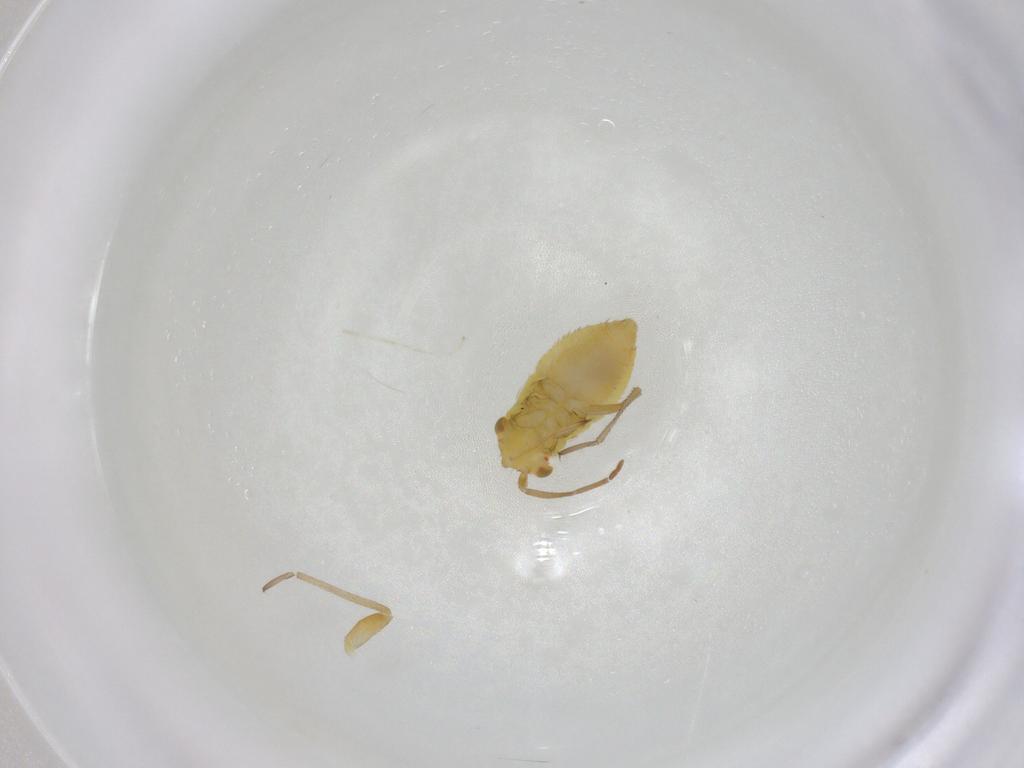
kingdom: Animalia
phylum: Arthropoda
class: Insecta
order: Hemiptera
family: Miridae
